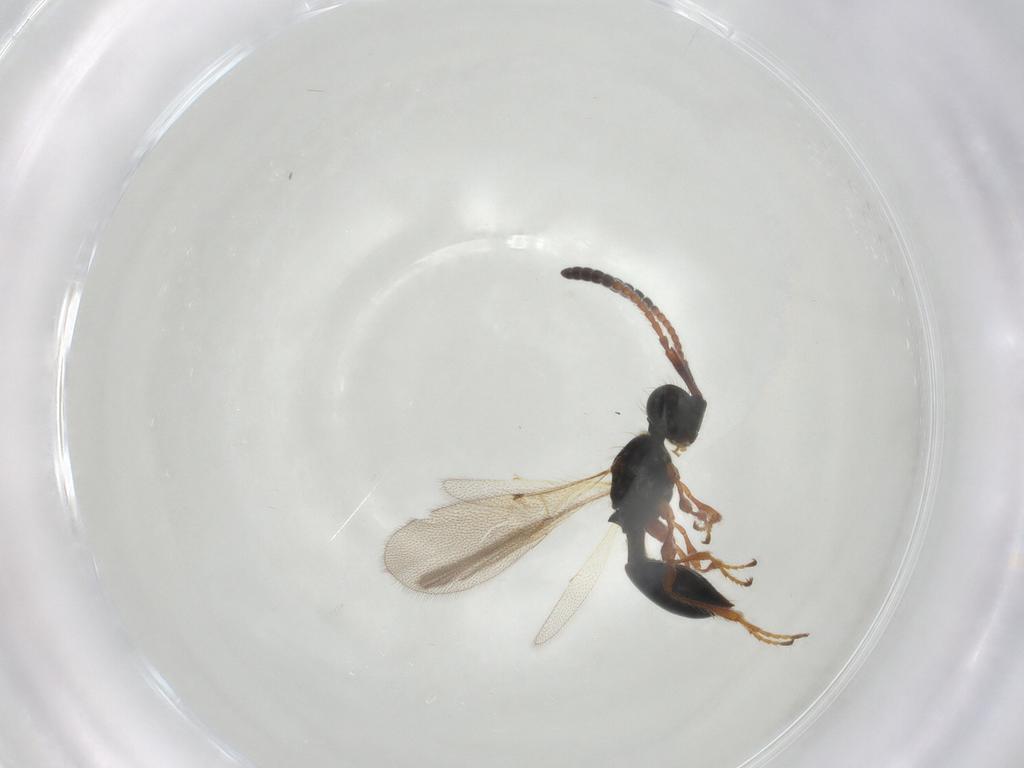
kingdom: Animalia
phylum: Arthropoda
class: Insecta
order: Hymenoptera
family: Diapriidae
